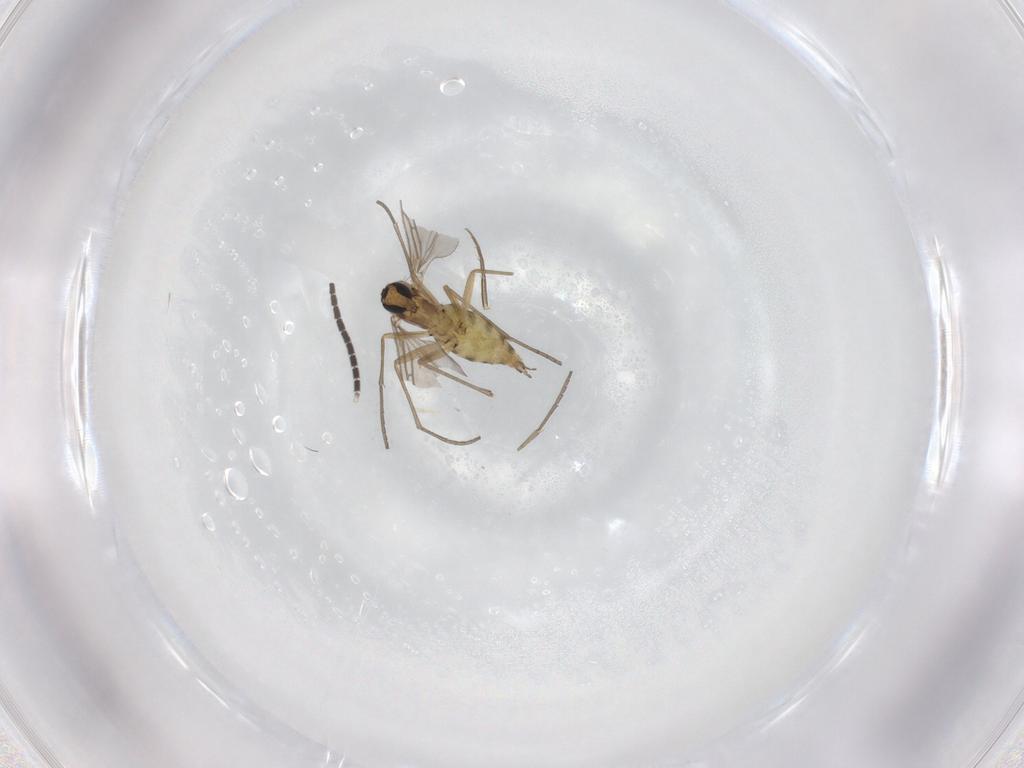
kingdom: Animalia
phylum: Arthropoda
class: Insecta
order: Diptera
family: Sciaridae
